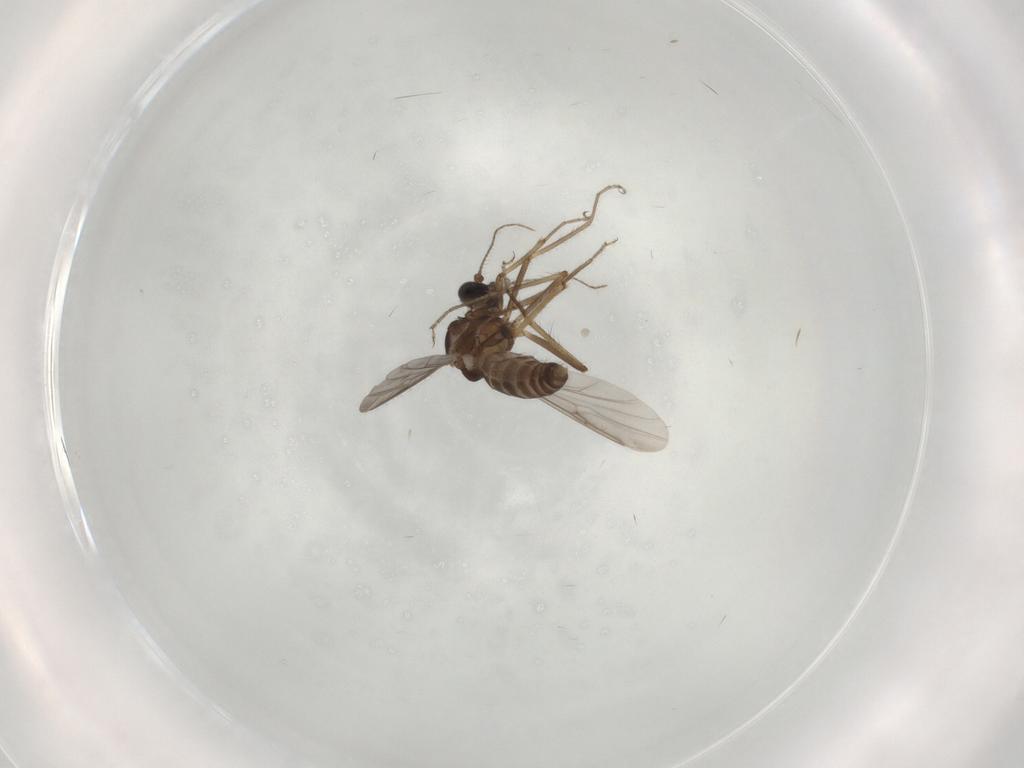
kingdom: Animalia
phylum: Arthropoda
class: Insecta
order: Diptera
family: Ceratopogonidae
